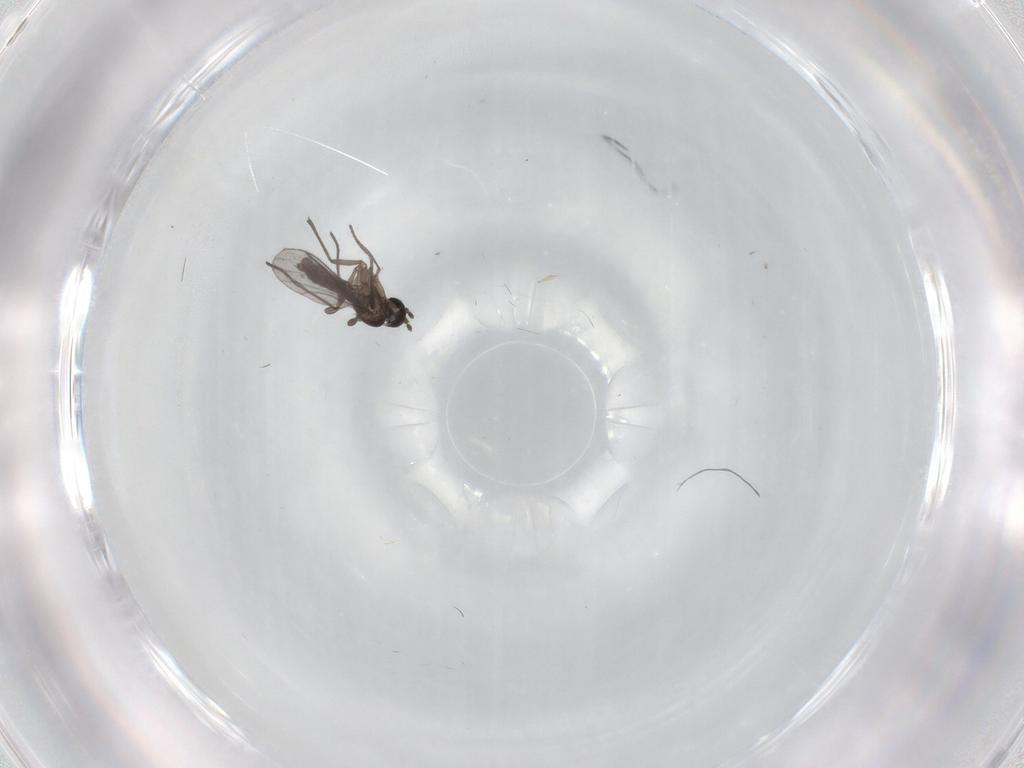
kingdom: Animalia
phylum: Arthropoda
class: Insecta
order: Diptera
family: Cecidomyiidae
